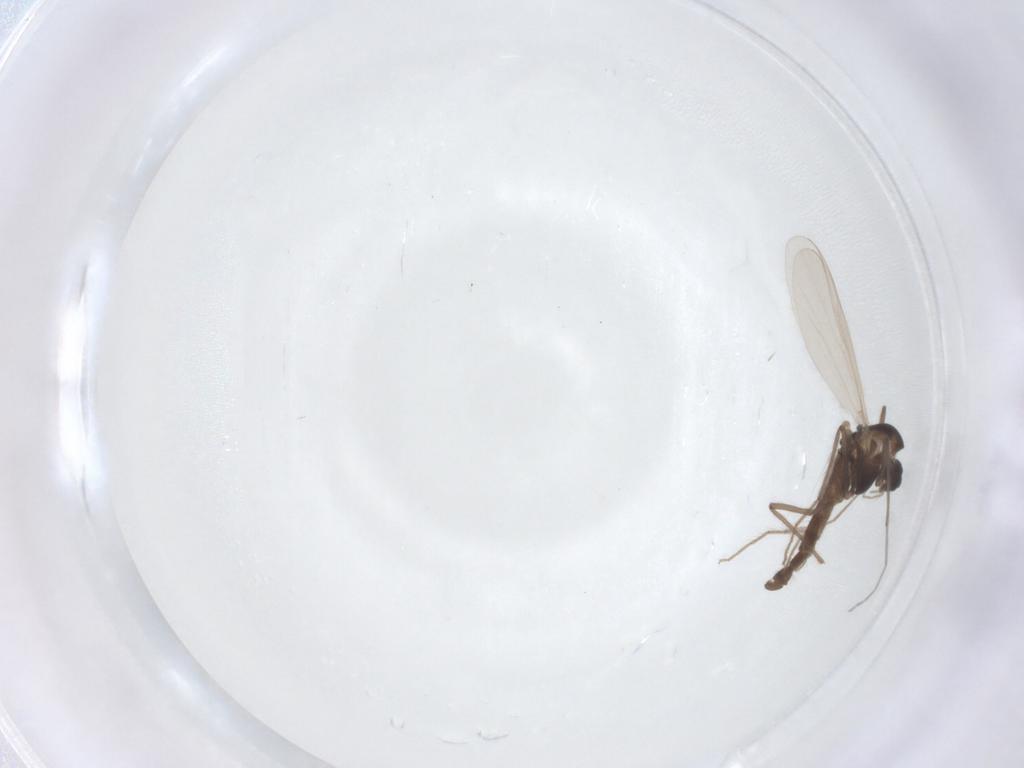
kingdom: Animalia
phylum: Arthropoda
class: Insecta
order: Diptera
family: Chironomidae
